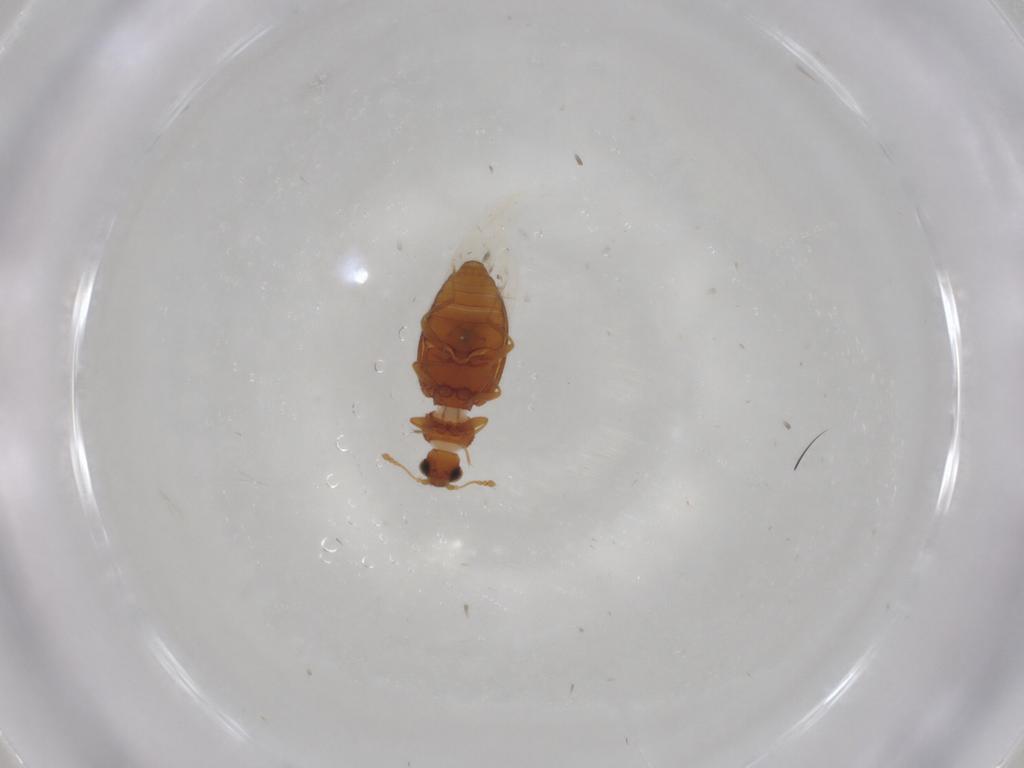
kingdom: Animalia
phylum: Arthropoda
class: Insecta
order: Coleoptera
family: Latridiidae
